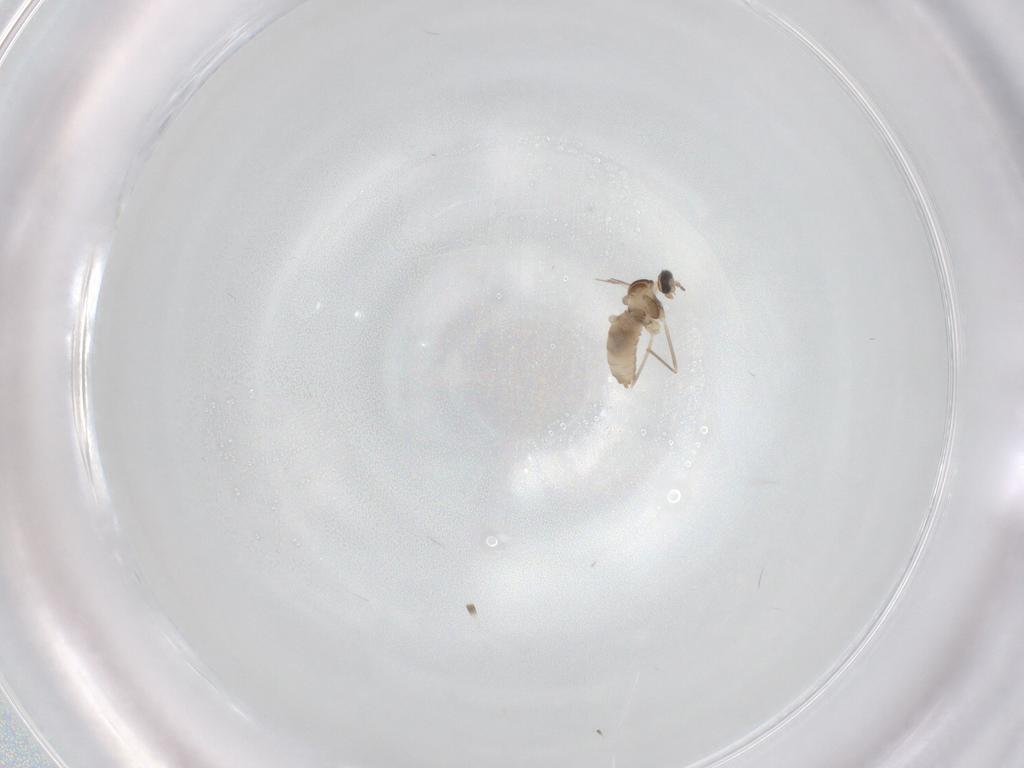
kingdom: Animalia
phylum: Arthropoda
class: Insecta
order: Diptera
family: Cecidomyiidae
